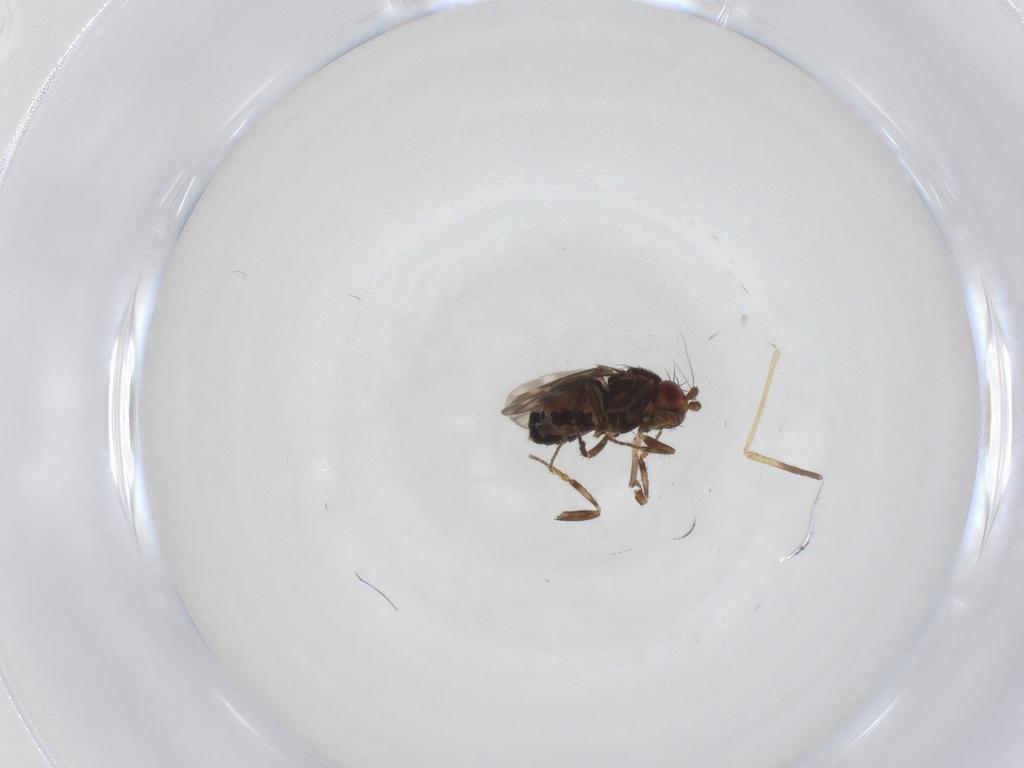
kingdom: Animalia
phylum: Arthropoda
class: Insecta
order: Diptera
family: Sphaeroceridae
